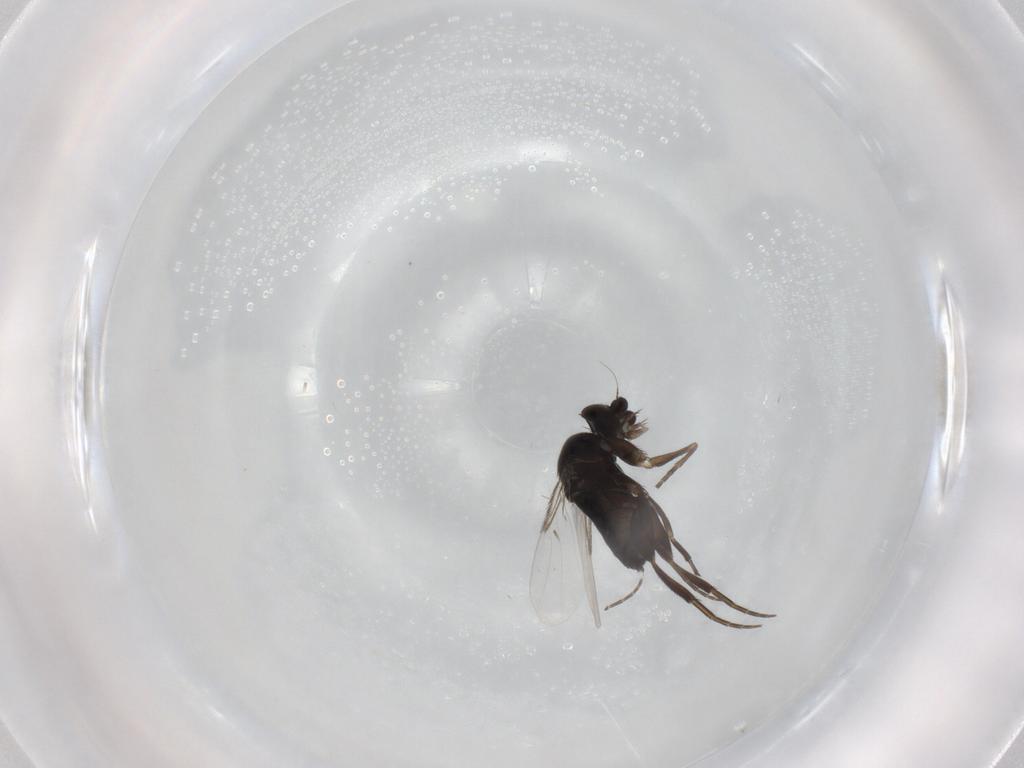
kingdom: Animalia
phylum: Arthropoda
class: Insecta
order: Diptera
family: Phoridae
